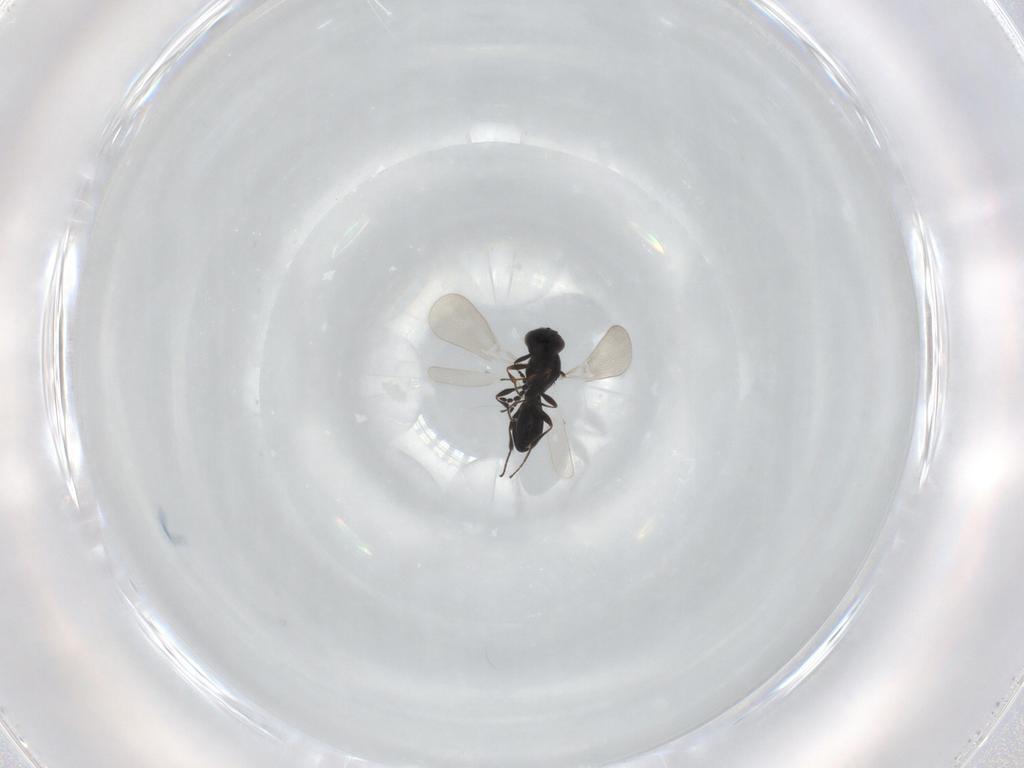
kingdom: Animalia
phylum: Arthropoda
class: Insecta
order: Hymenoptera
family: Platygastridae
